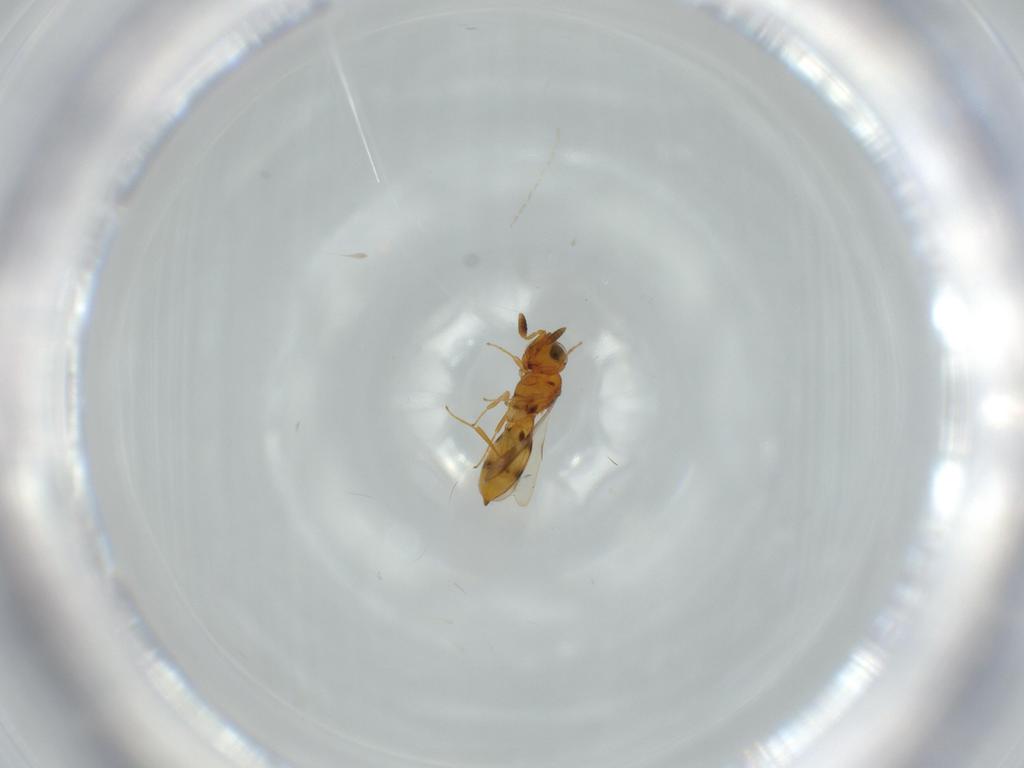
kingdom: Animalia
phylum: Arthropoda
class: Insecta
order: Hymenoptera
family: Scelionidae
